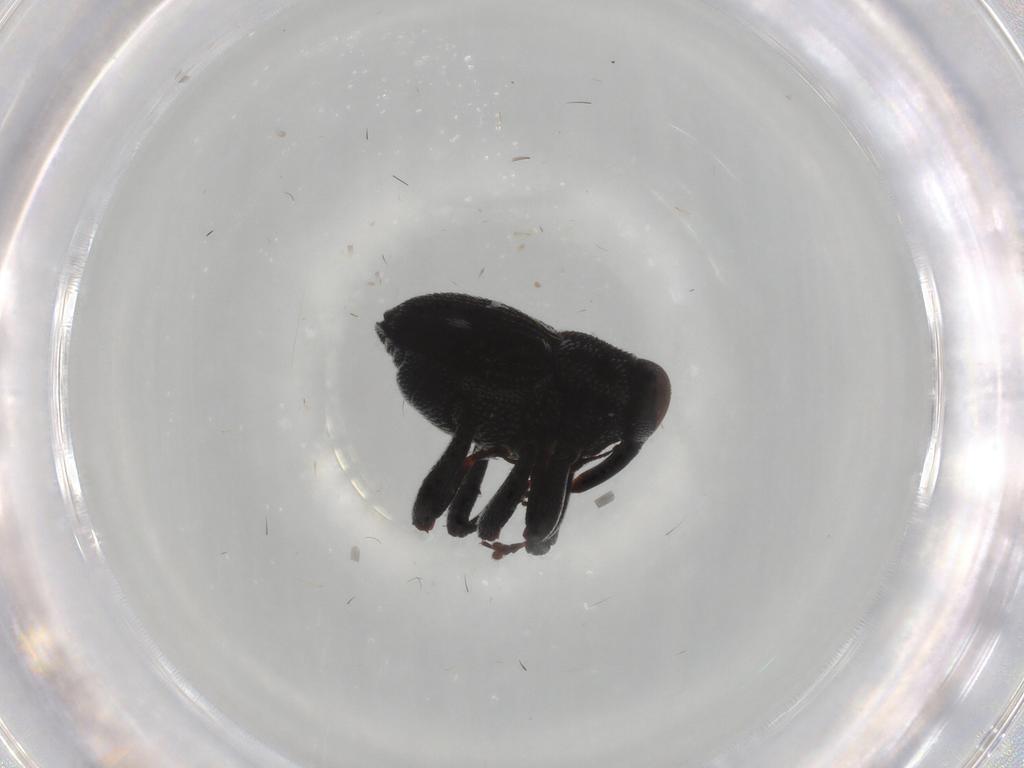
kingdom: Animalia
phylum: Arthropoda
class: Insecta
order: Coleoptera
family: Curculionidae
